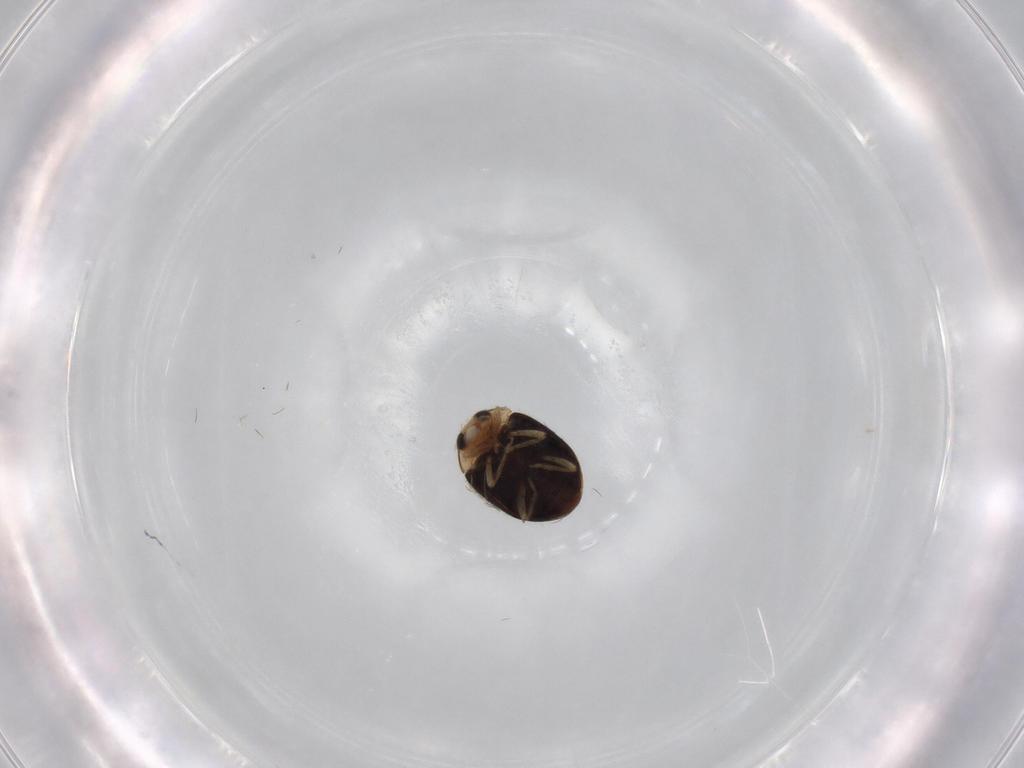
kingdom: Animalia
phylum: Arthropoda
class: Insecta
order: Coleoptera
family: Coccinellidae
